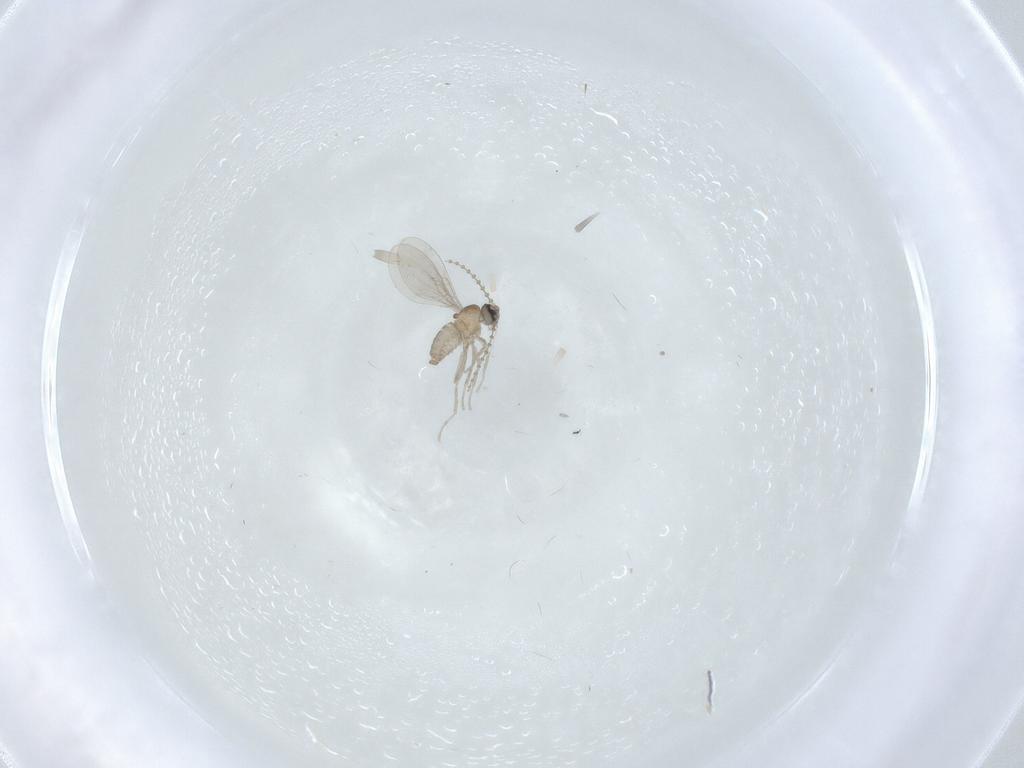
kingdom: Animalia
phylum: Arthropoda
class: Insecta
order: Diptera
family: Cecidomyiidae
